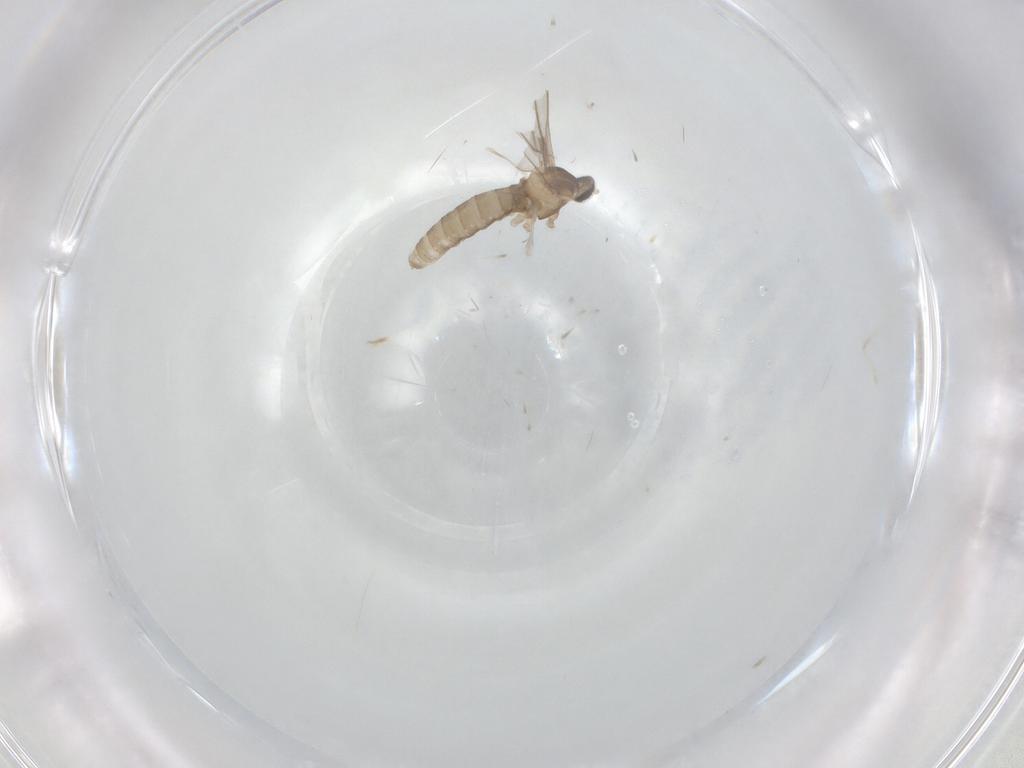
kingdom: Animalia
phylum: Arthropoda
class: Insecta
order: Diptera
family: Cecidomyiidae
